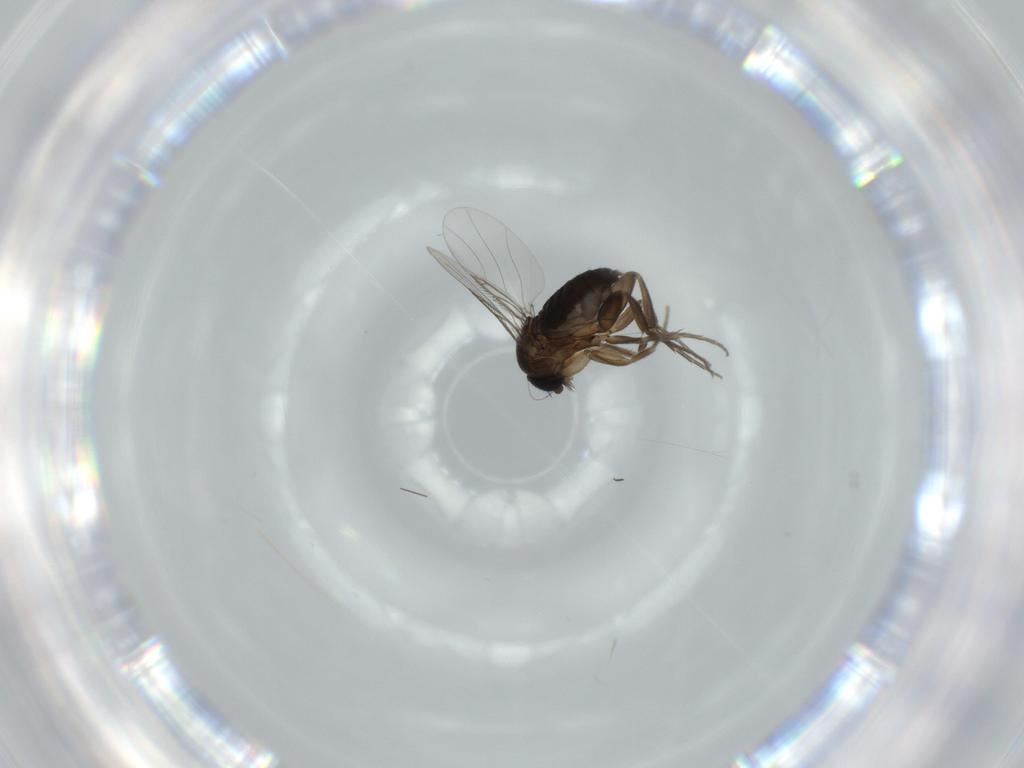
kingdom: Animalia
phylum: Arthropoda
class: Insecta
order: Diptera
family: Phoridae
